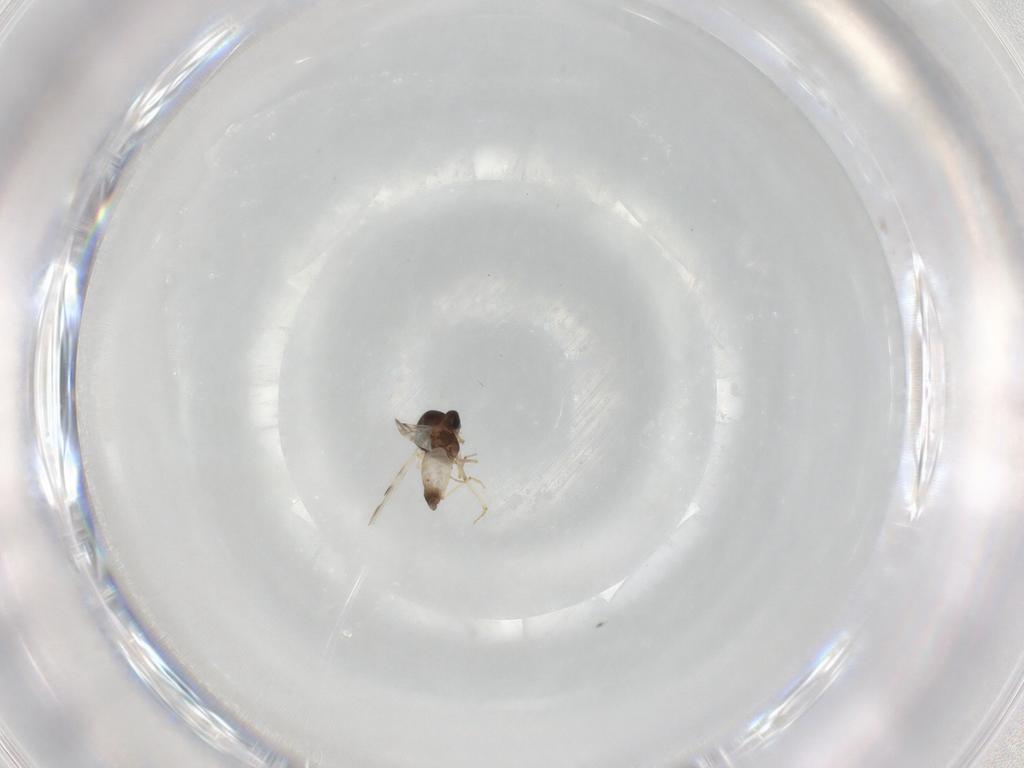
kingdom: Animalia
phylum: Arthropoda
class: Insecta
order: Diptera
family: Ceratopogonidae
